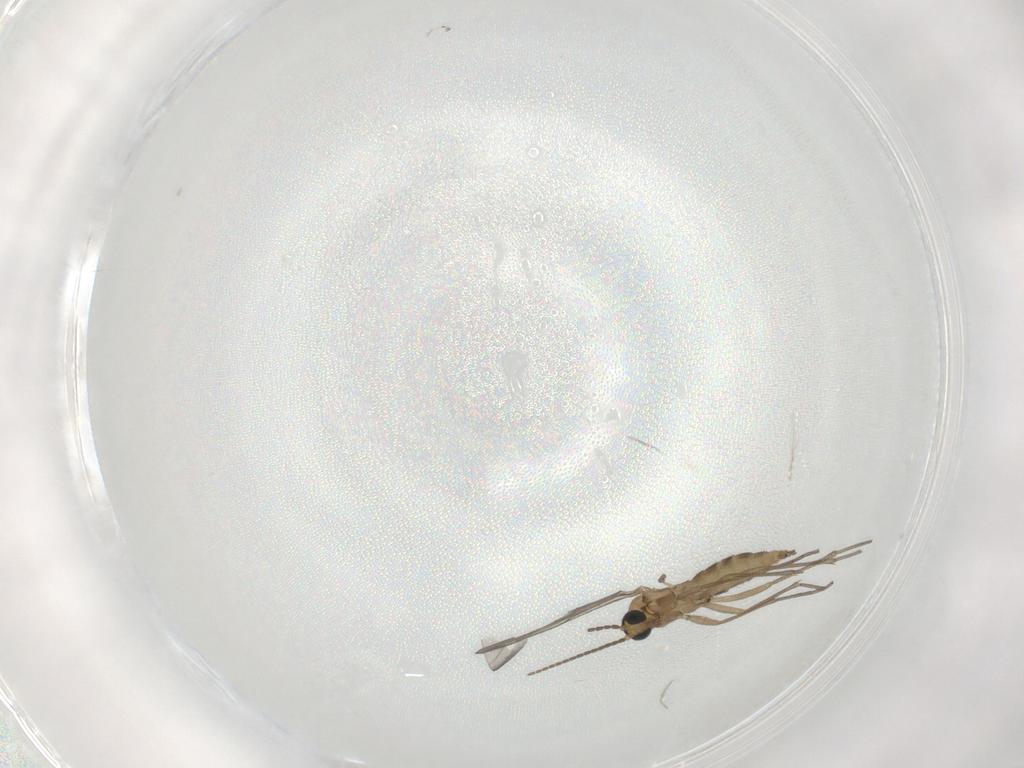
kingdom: Animalia
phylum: Arthropoda
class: Insecta
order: Diptera
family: Sciaridae
